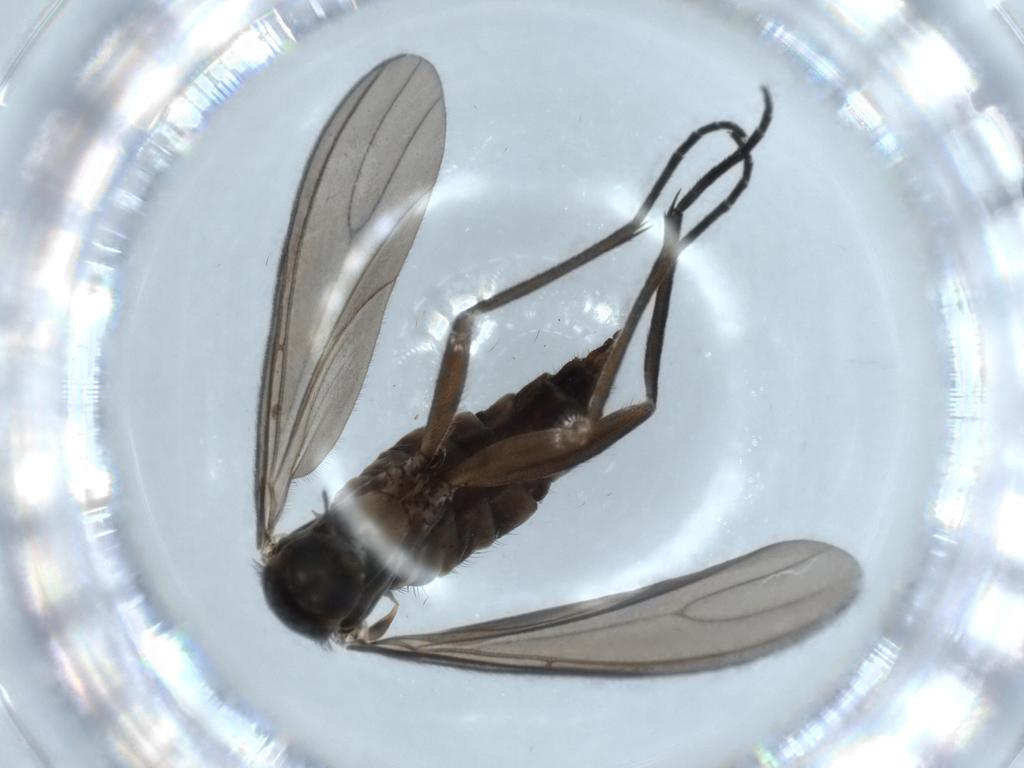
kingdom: Animalia
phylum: Arthropoda
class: Insecta
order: Diptera
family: Sciaridae
